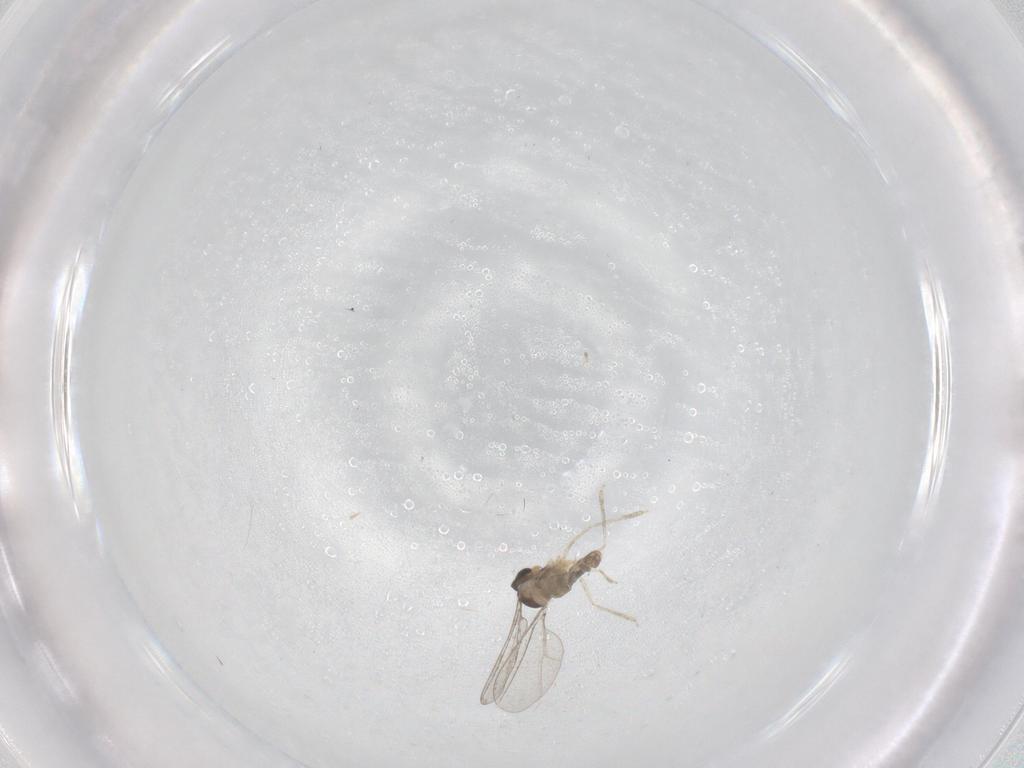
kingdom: Animalia
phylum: Arthropoda
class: Insecta
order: Diptera
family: Cecidomyiidae
